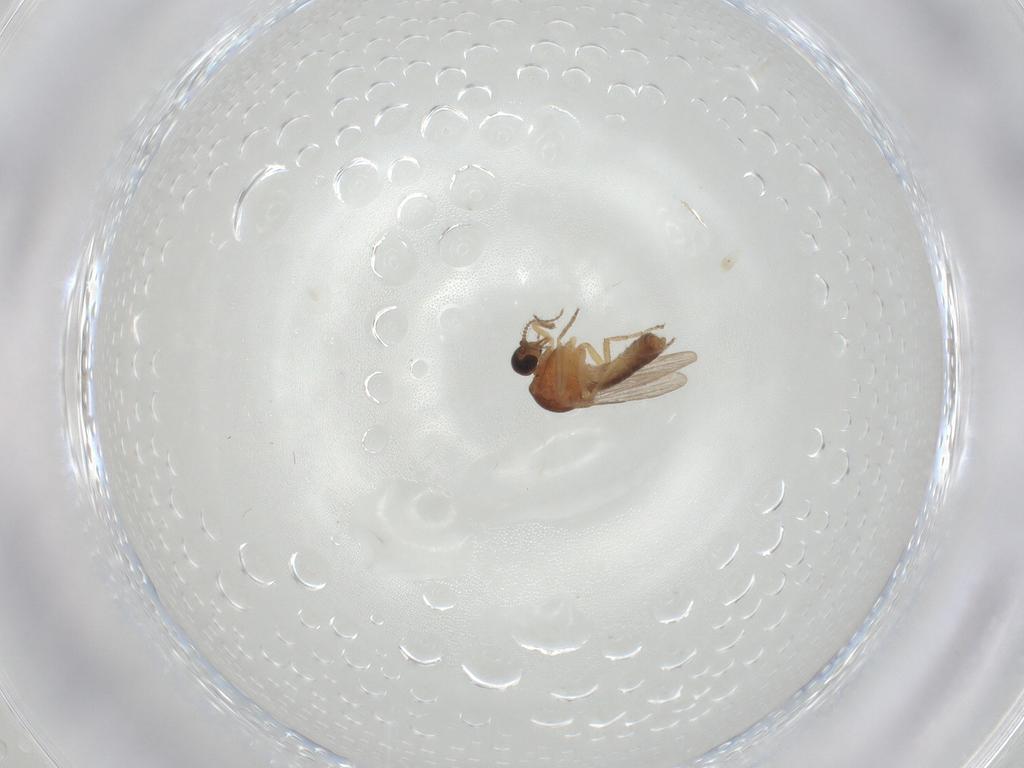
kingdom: Animalia
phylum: Arthropoda
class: Insecta
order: Diptera
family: Ceratopogonidae
